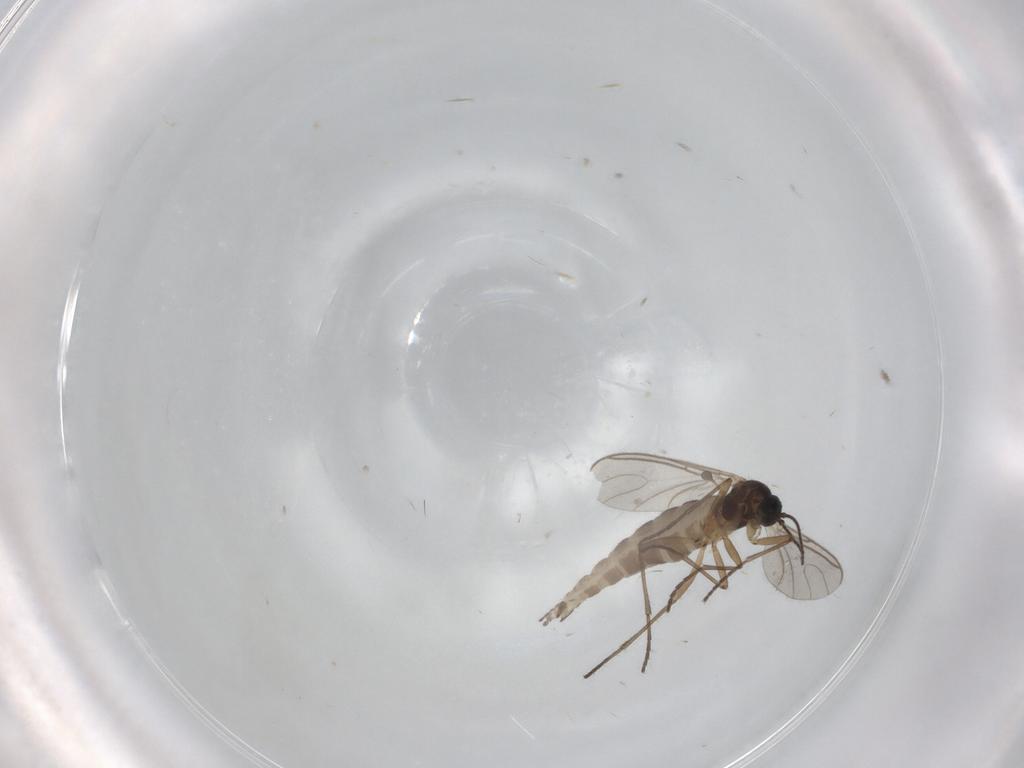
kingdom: Animalia
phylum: Arthropoda
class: Insecta
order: Diptera
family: Sciaridae
